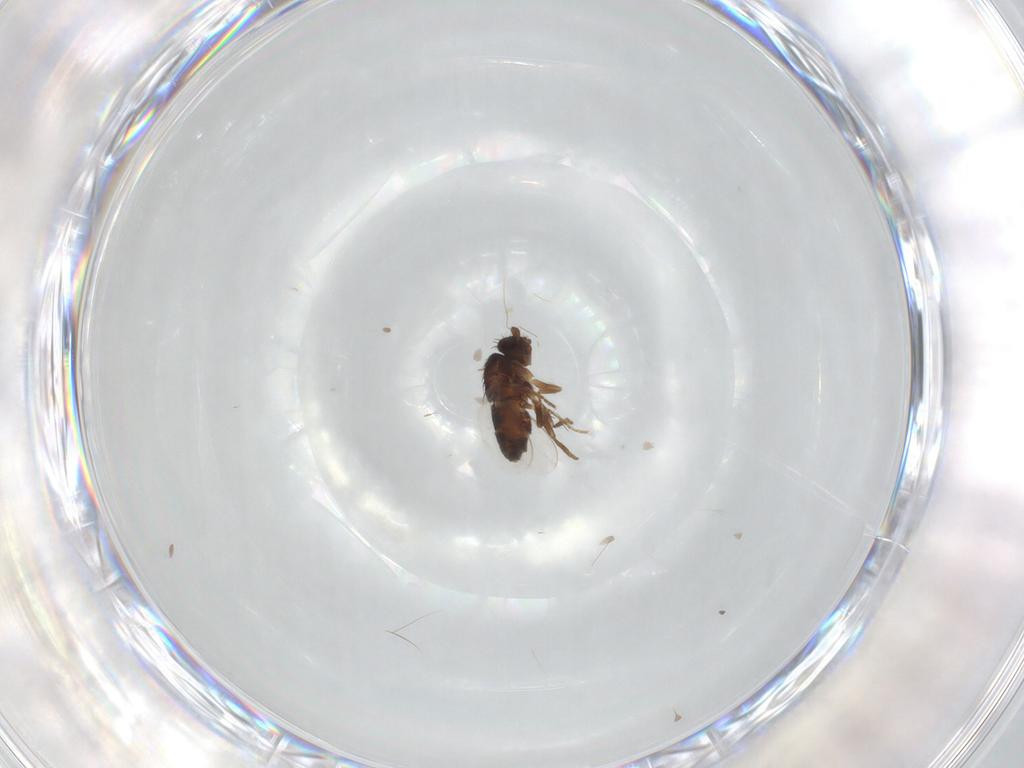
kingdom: Animalia
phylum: Arthropoda
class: Insecta
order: Diptera
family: Sphaeroceridae
